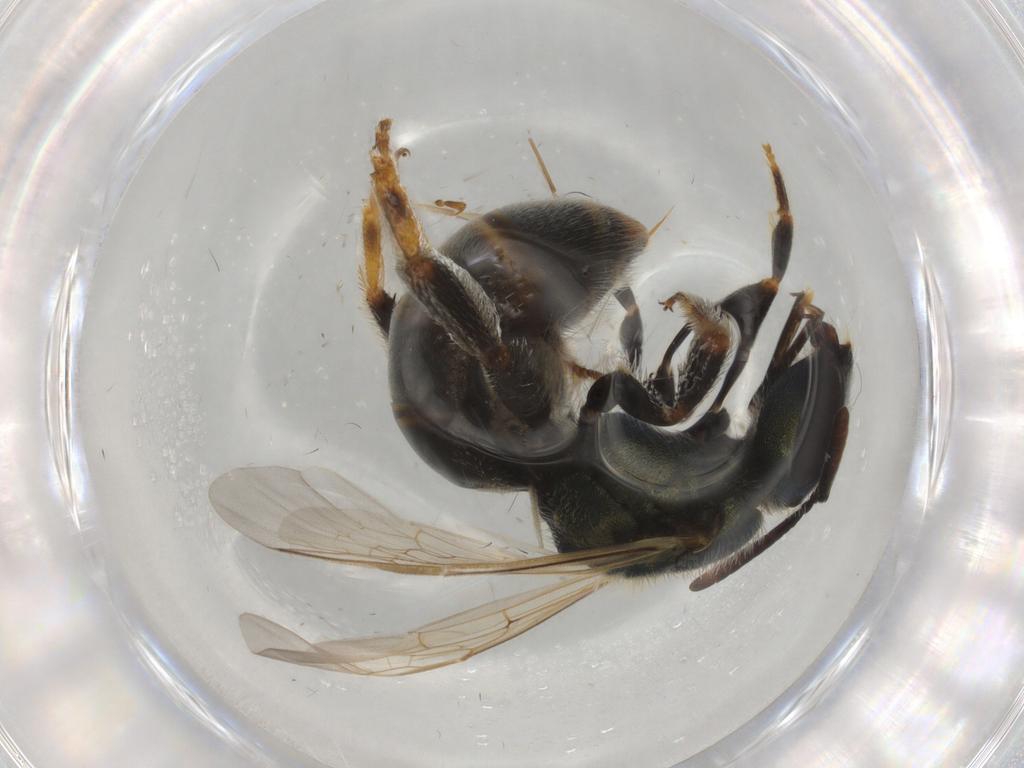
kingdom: Animalia
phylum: Arthropoda
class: Insecta
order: Hymenoptera
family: Halictidae
